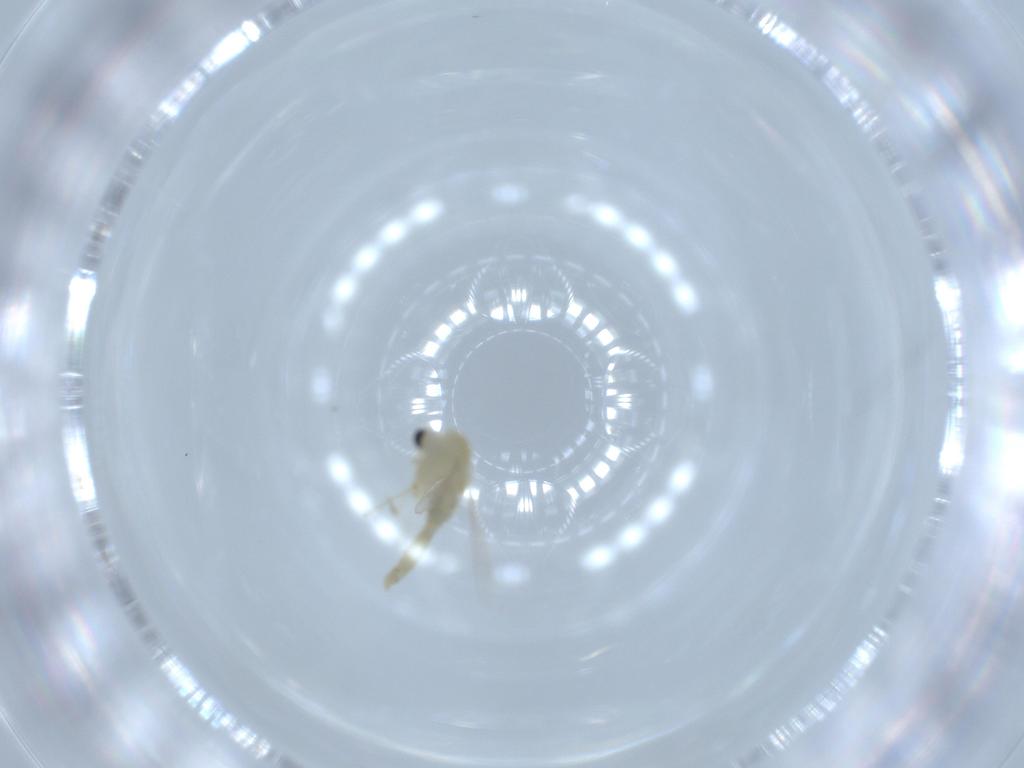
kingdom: Animalia
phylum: Arthropoda
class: Insecta
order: Diptera
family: Chironomidae
